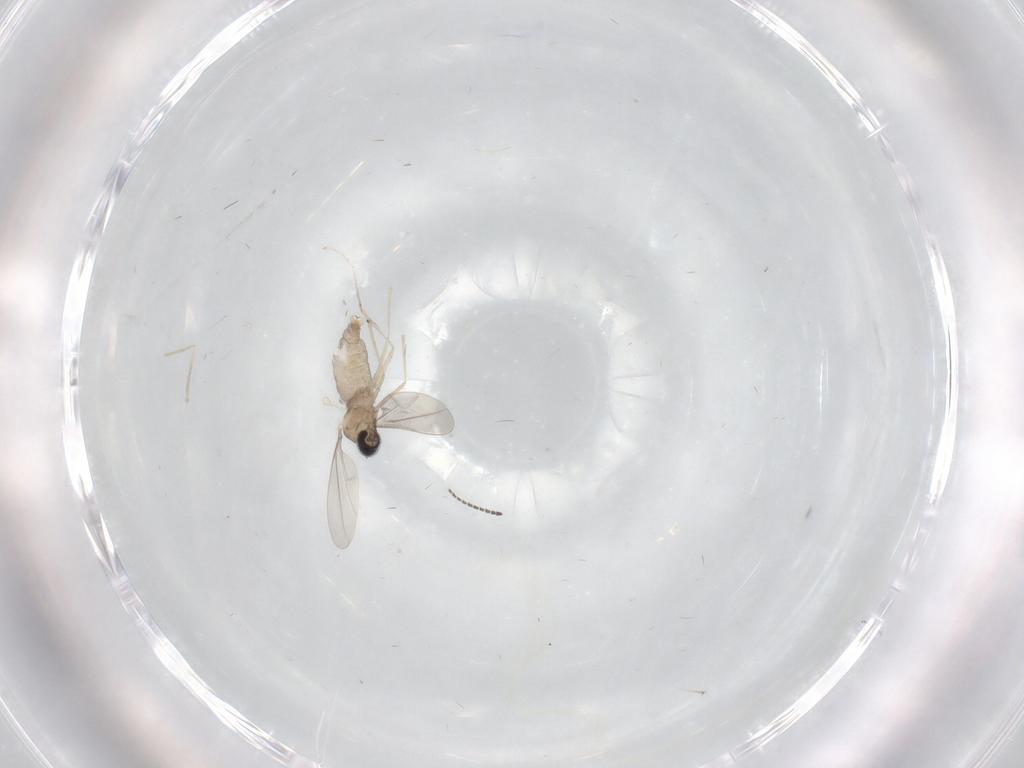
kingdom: Animalia
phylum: Arthropoda
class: Insecta
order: Diptera
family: Cecidomyiidae
